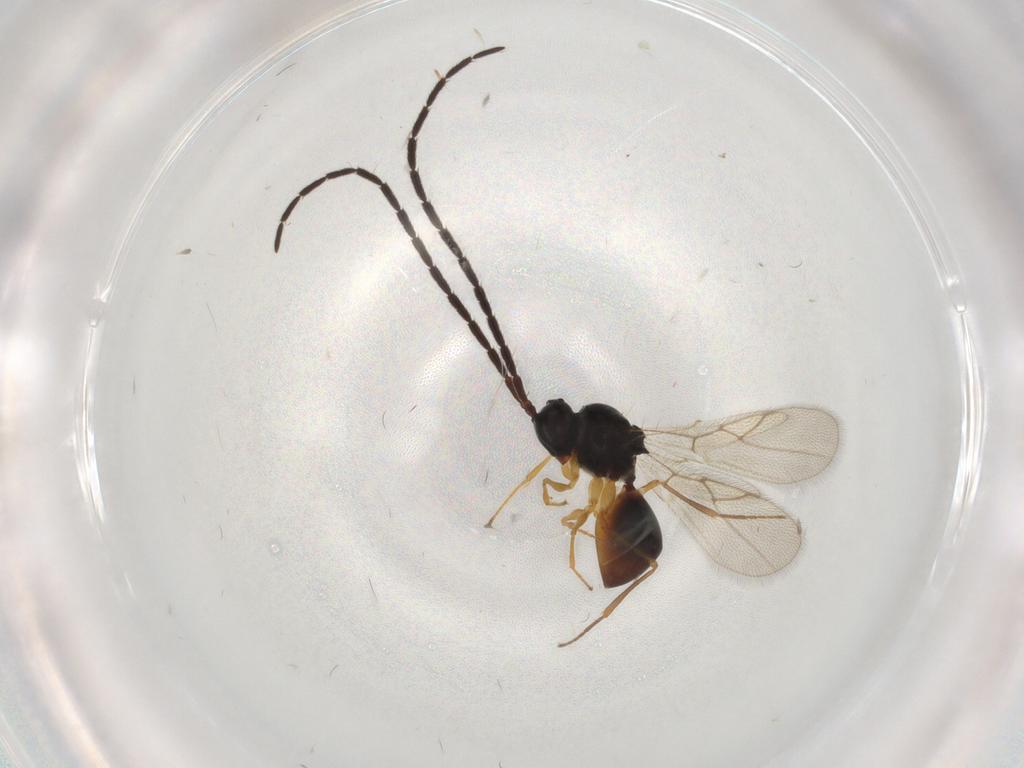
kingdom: Animalia
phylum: Arthropoda
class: Insecta
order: Hymenoptera
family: Figitidae
